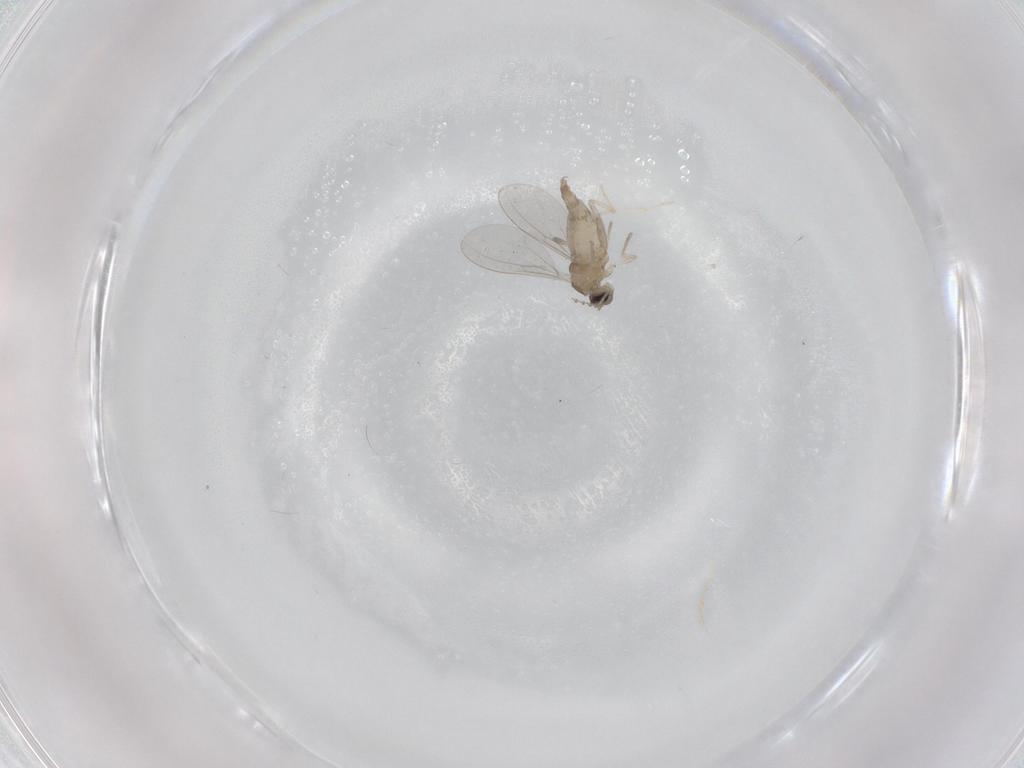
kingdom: Animalia
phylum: Arthropoda
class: Insecta
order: Diptera
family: Cecidomyiidae
